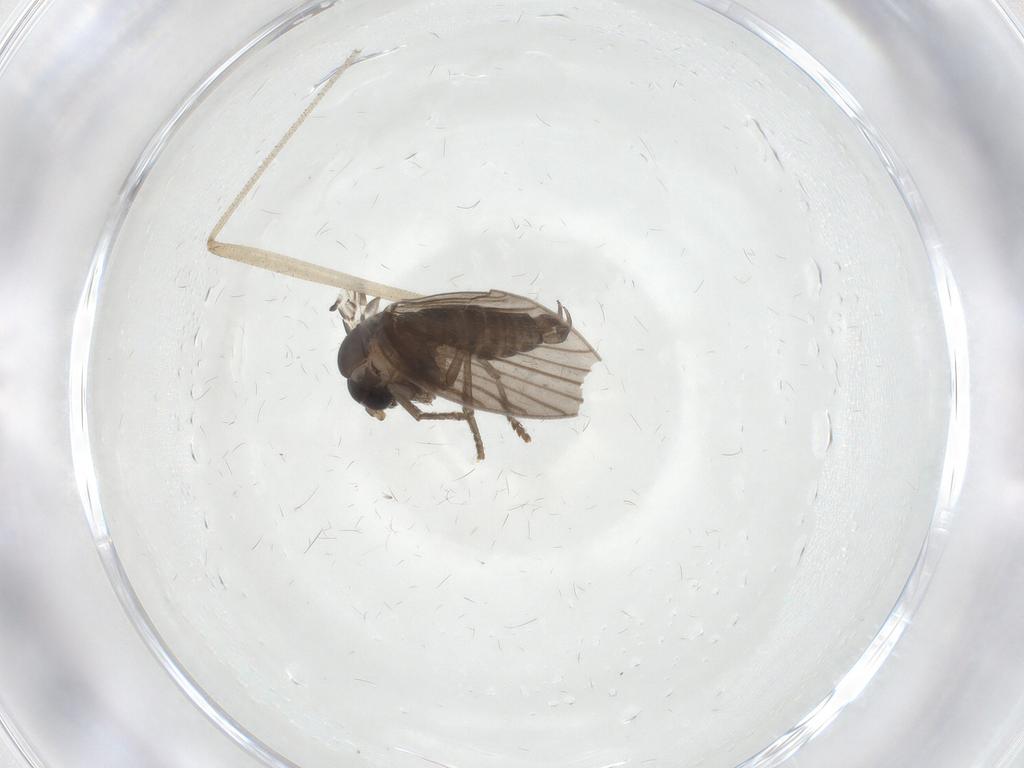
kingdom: Animalia
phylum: Arthropoda
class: Insecta
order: Diptera
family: Psychodidae
